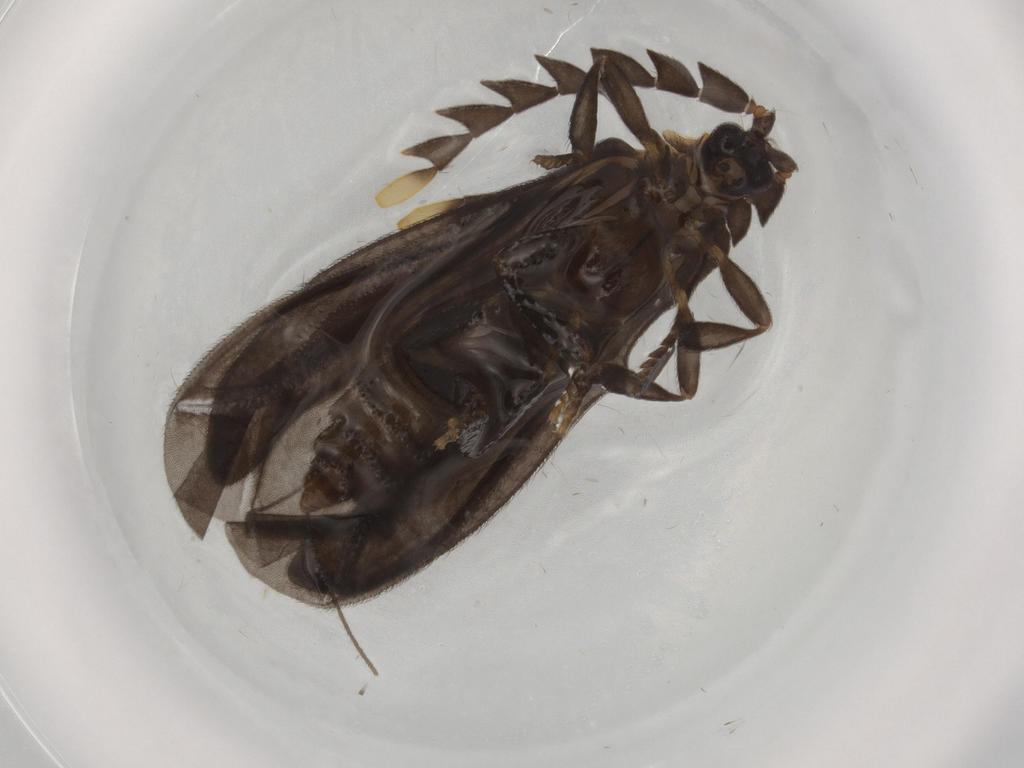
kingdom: Animalia
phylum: Arthropoda
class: Insecta
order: Coleoptera
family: Lycidae
